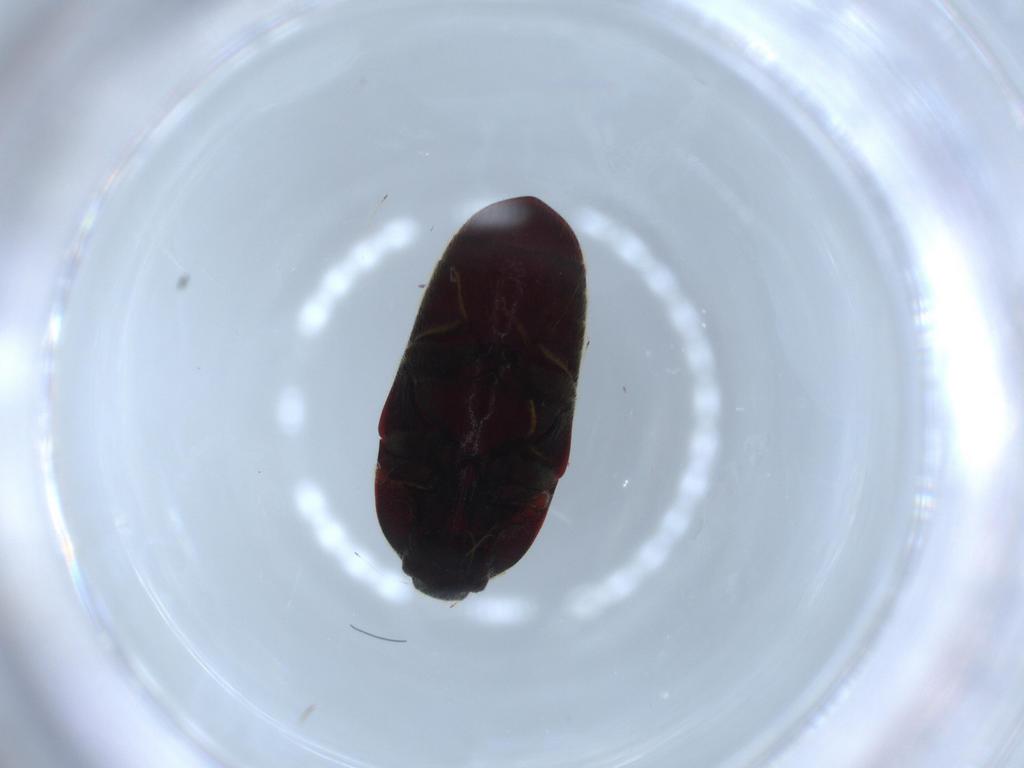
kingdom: Animalia
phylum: Arthropoda
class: Insecta
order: Coleoptera
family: Throscidae
